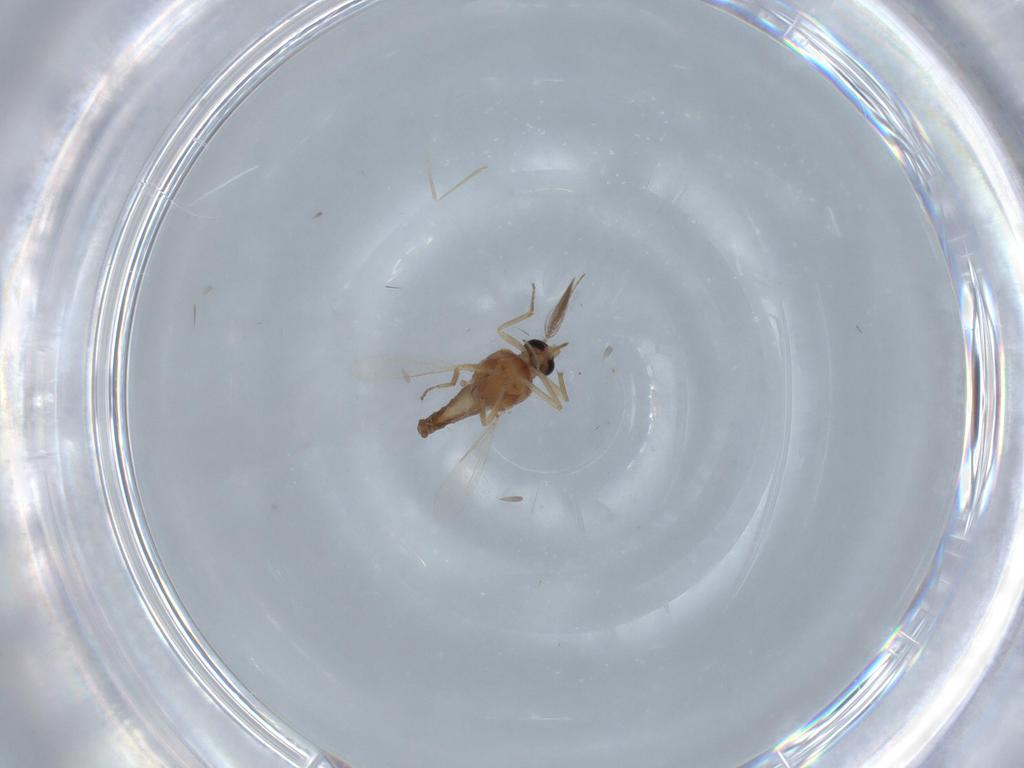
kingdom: Animalia
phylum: Arthropoda
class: Insecta
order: Diptera
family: Ceratopogonidae
